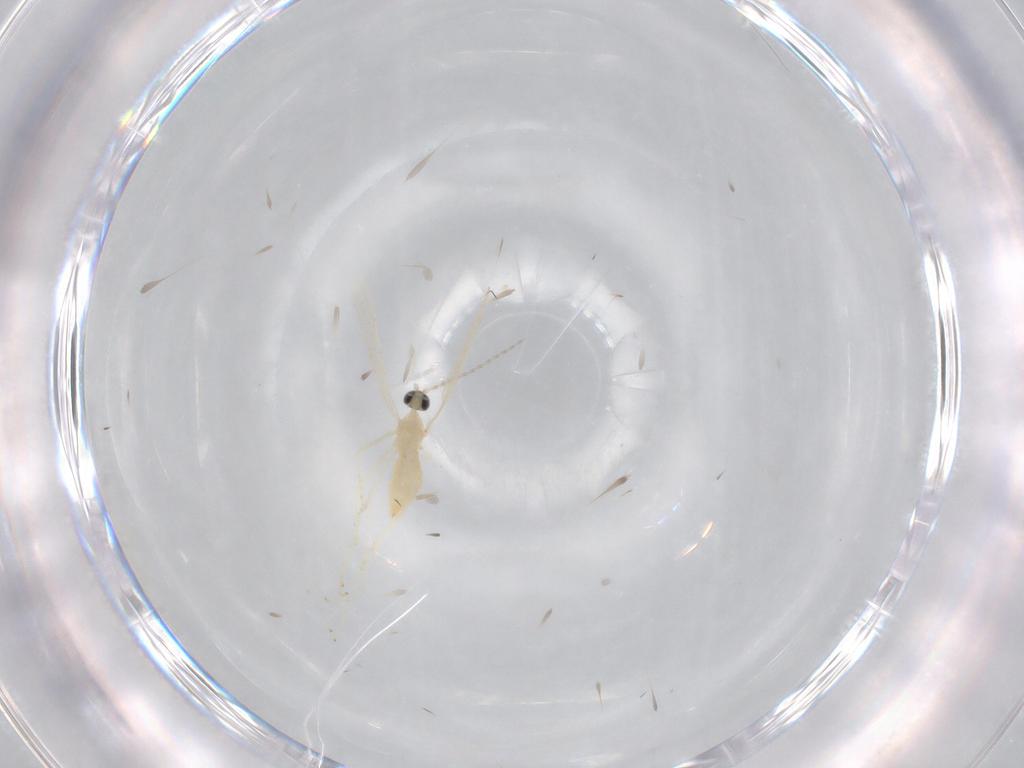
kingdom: Animalia
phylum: Arthropoda
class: Insecta
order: Diptera
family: Cecidomyiidae
